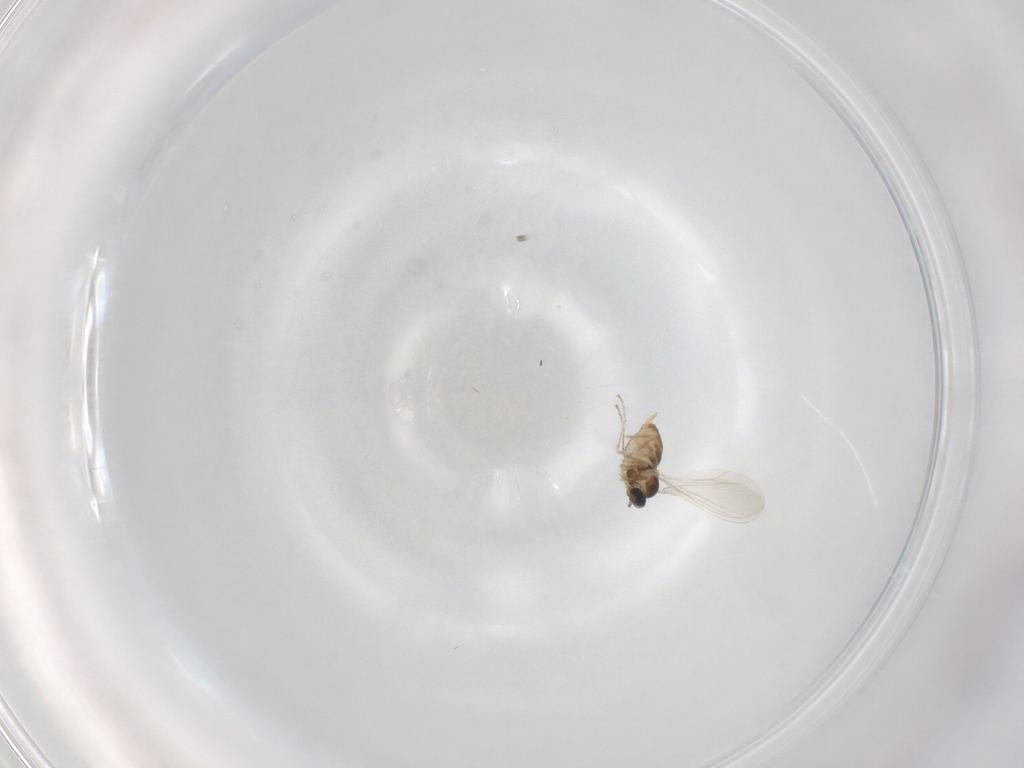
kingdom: Animalia
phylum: Arthropoda
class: Insecta
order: Diptera
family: Cecidomyiidae
